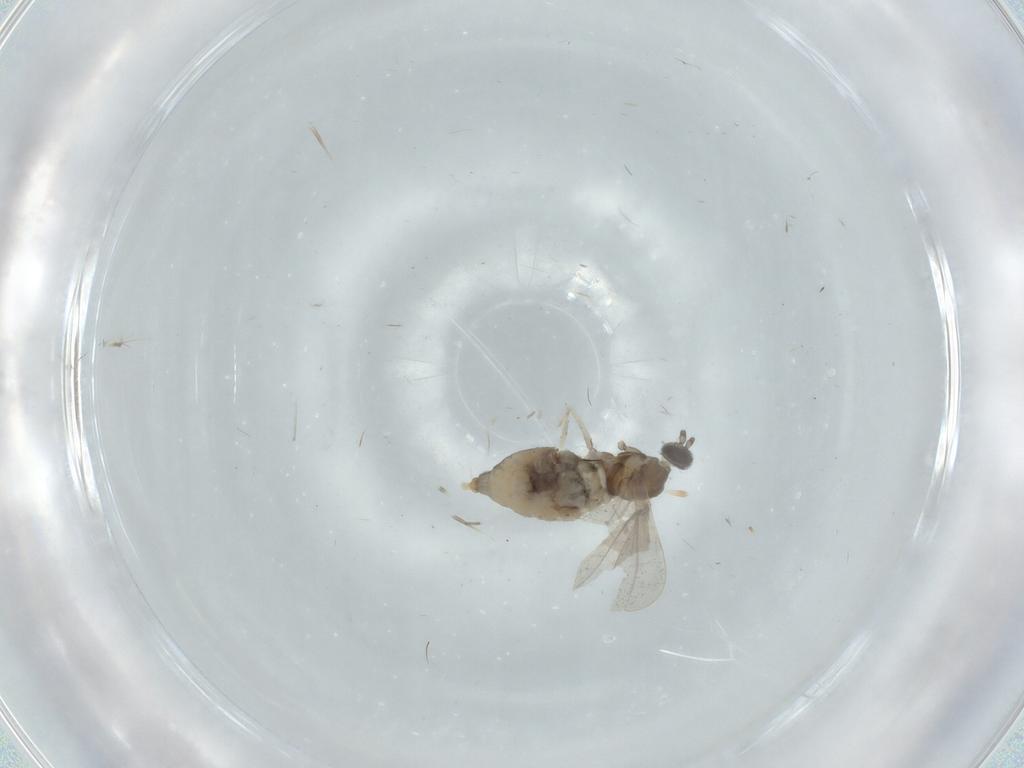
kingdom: Animalia
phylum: Arthropoda
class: Insecta
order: Diptera
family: Cecidomyiidae
